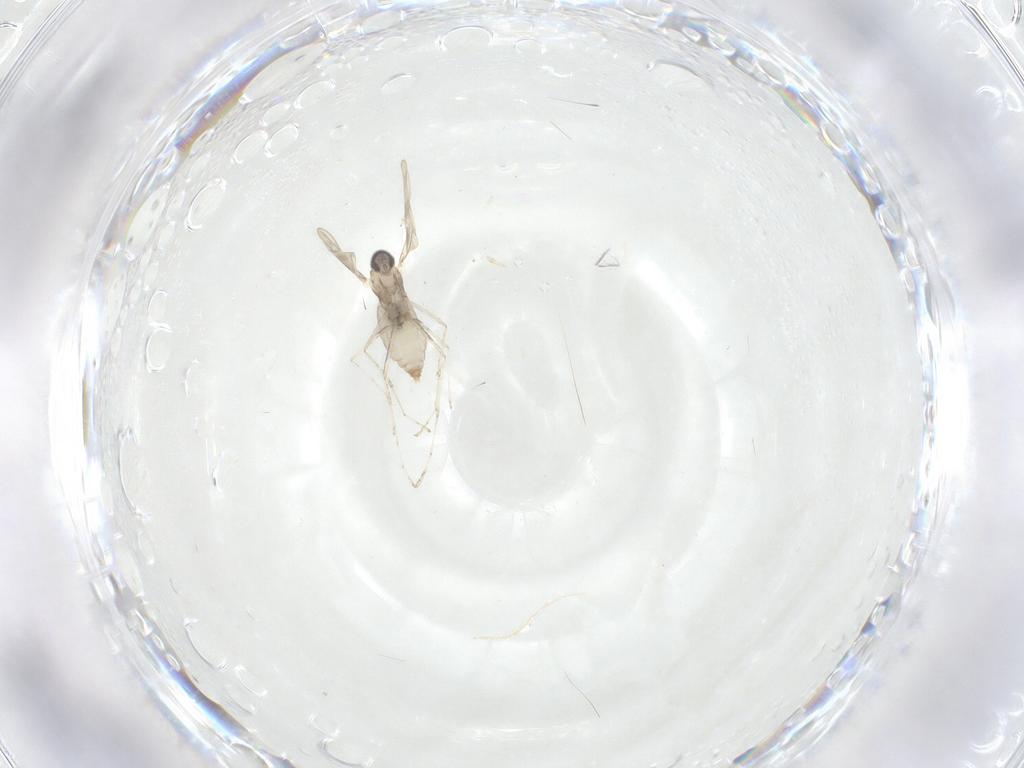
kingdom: Animalia
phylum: Arthropoda
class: Insecta
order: Diptera
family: Cecidomyiidae
